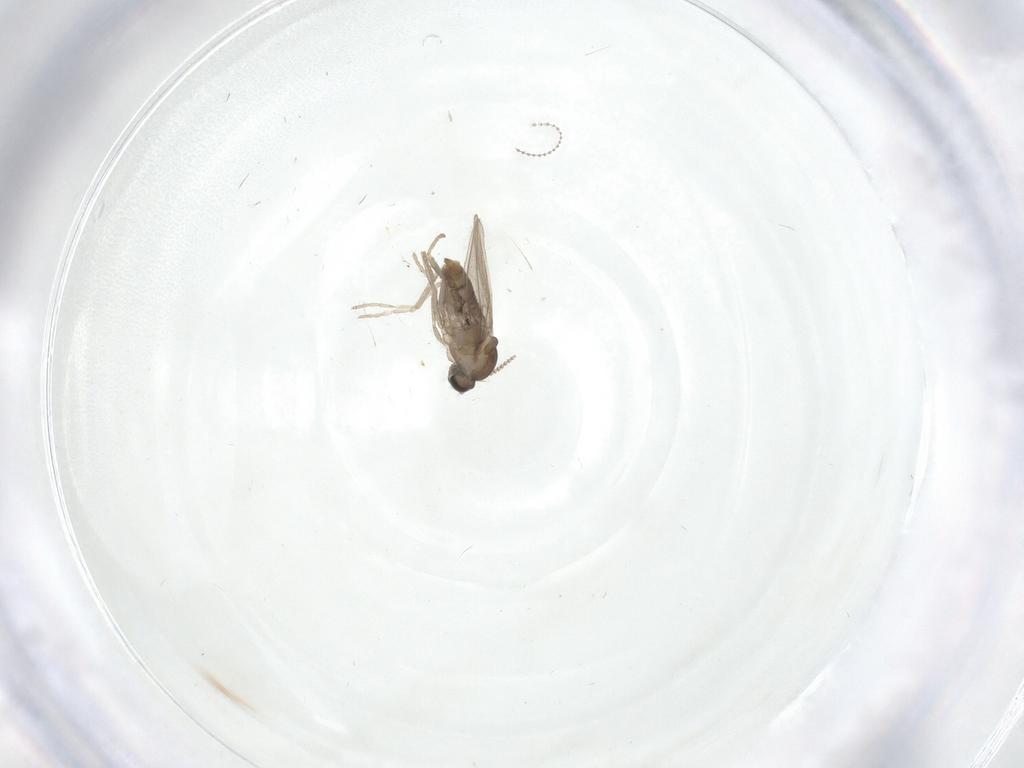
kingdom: Animalia
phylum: Arthropoda
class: Insecta
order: Diptera
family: Cecidomyiidae
